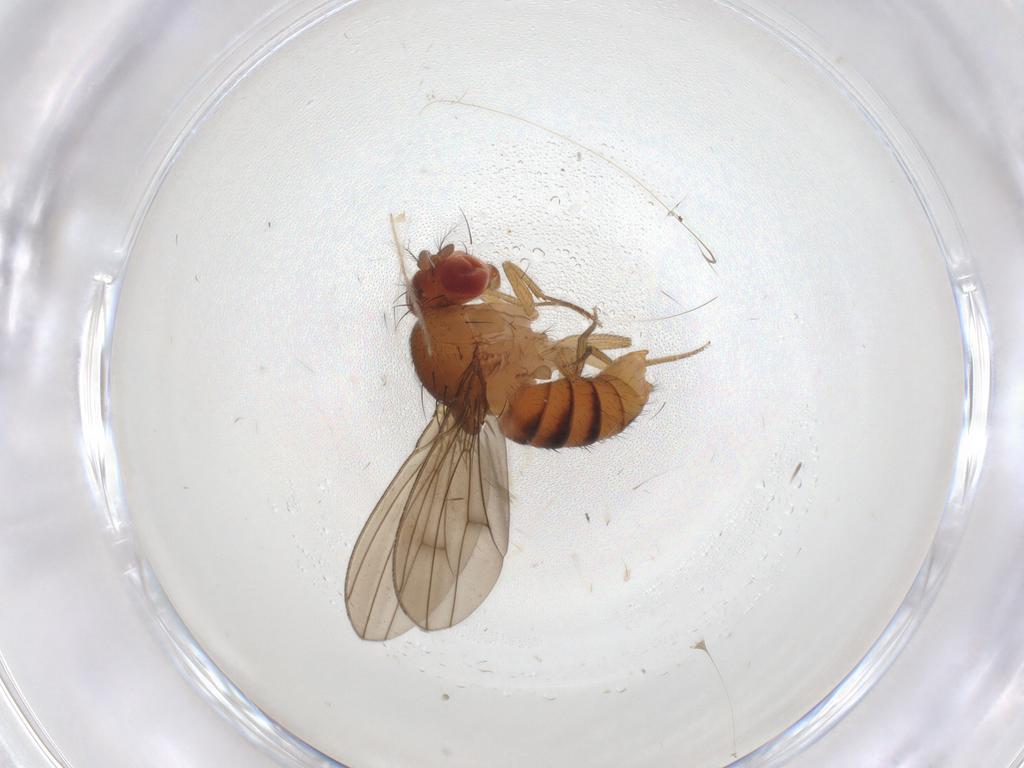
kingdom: Animalia
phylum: Arthropoda
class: Insecta
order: Diptera
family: Drosophilidae
